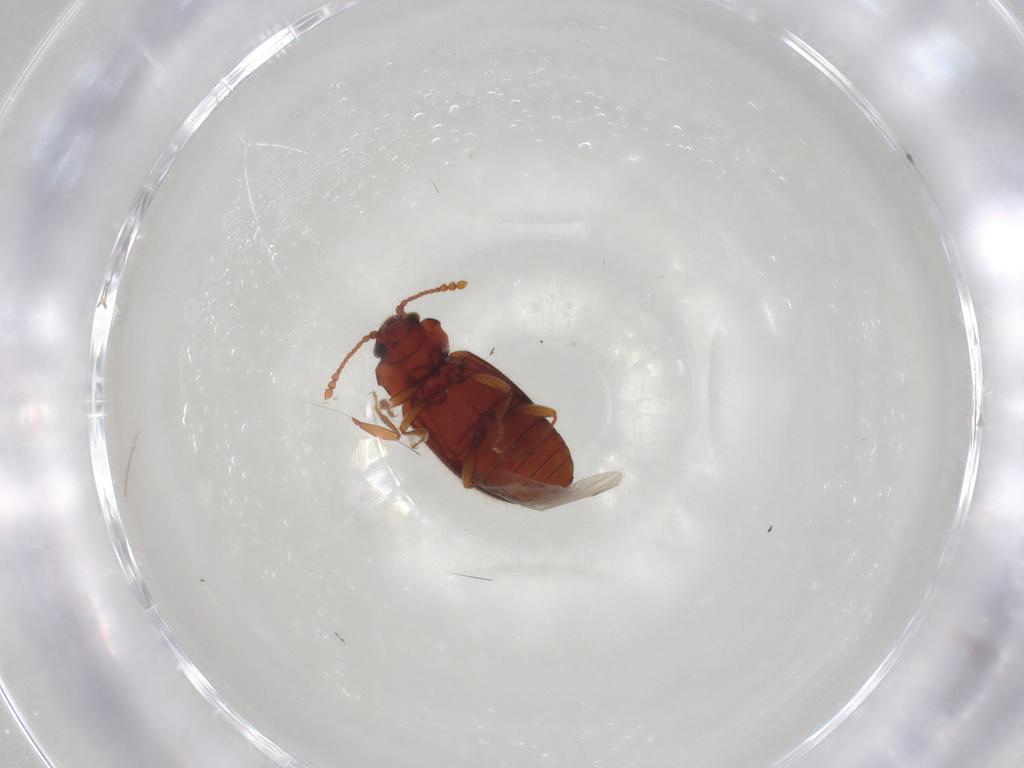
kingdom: Animalia
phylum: Arthropoda
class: Insecta
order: Coleoptera
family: Cryptophagidae
